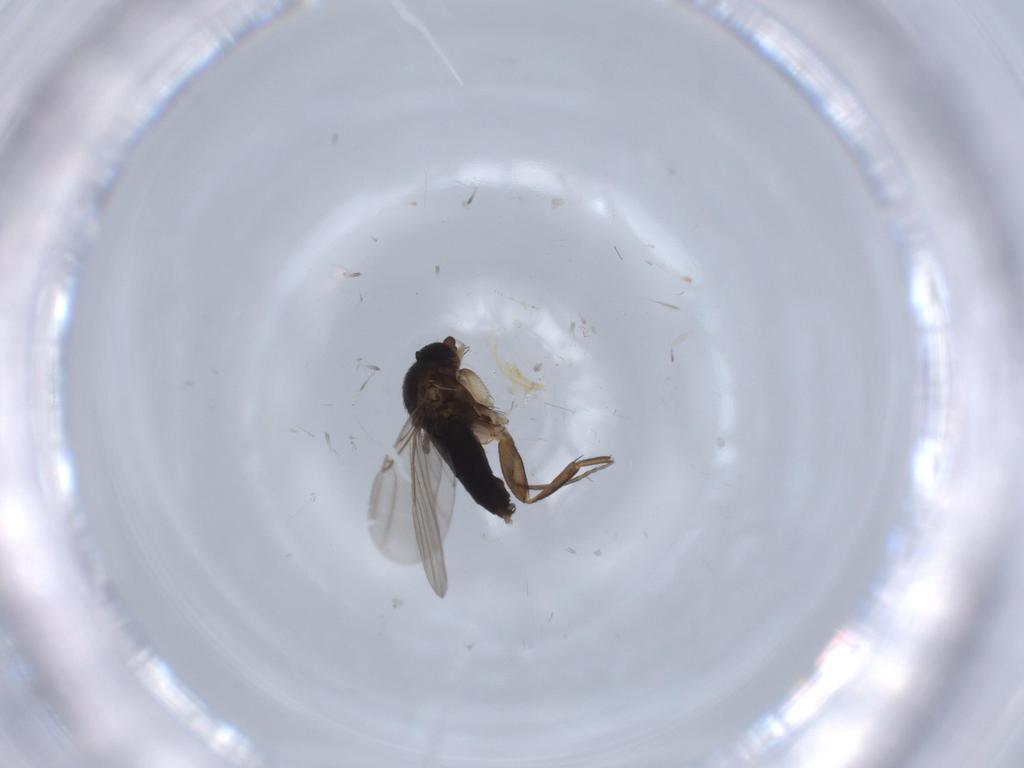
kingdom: Animalia
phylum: Arthropoda
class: Insecta
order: Diptera
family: Phoridae
